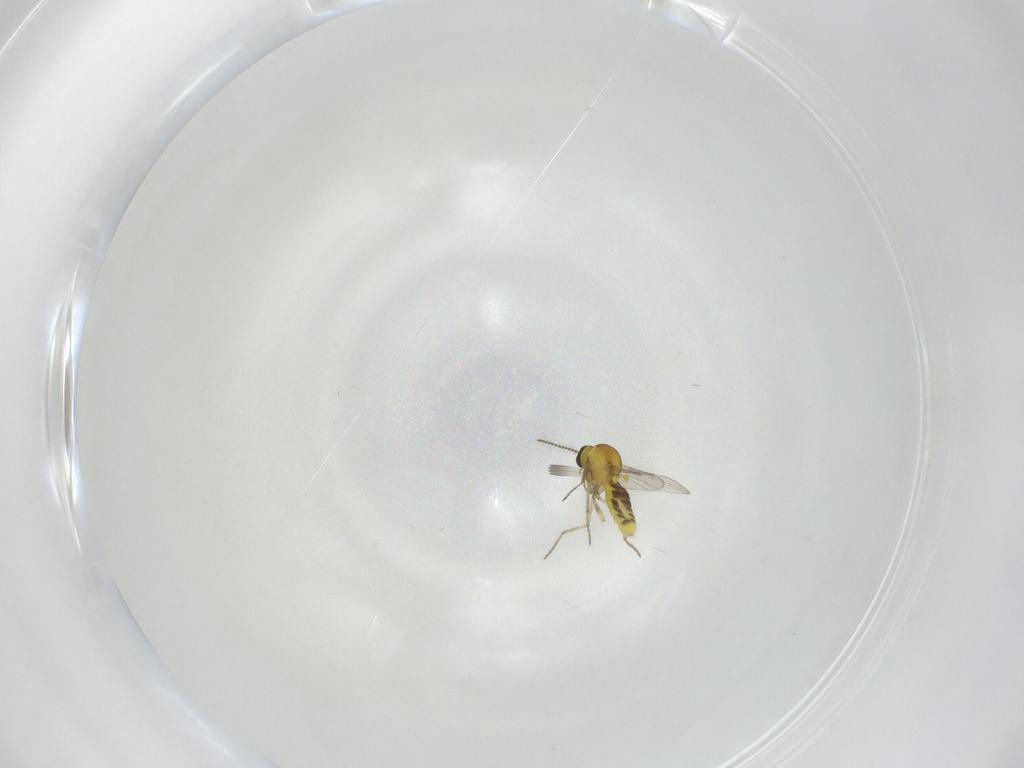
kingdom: Animalia
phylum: Arthropoda
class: Insecta
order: Diptera
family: Ceratopogonidae
